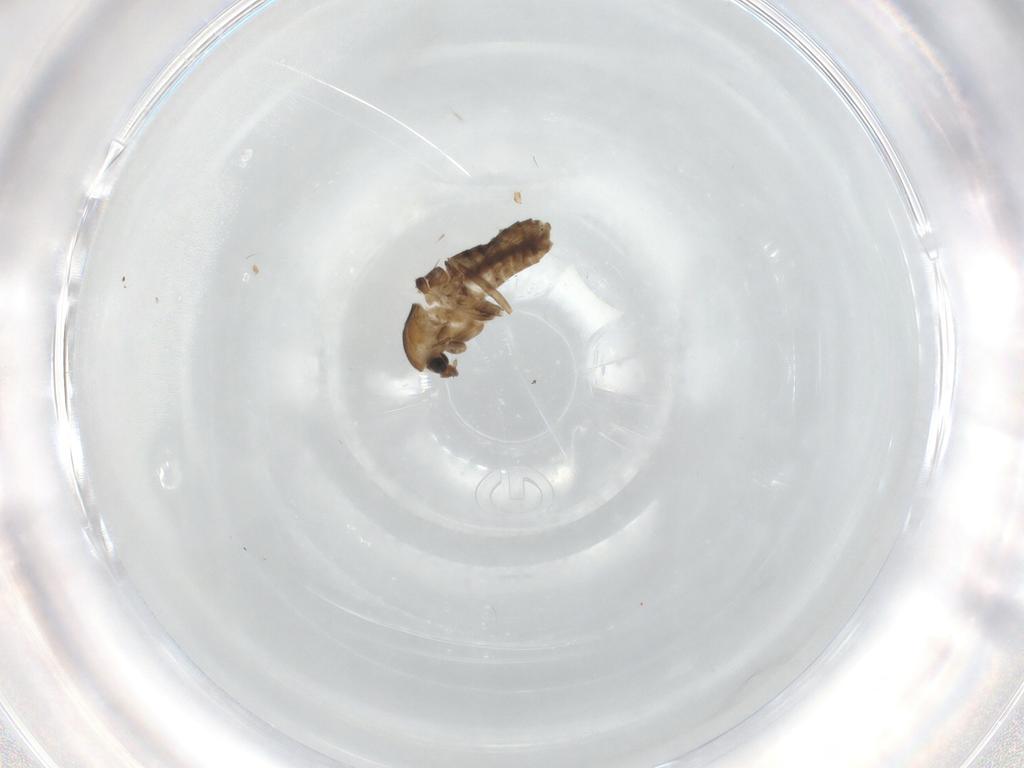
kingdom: Animalia
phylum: Arthropoda
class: Insecta
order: Diptera
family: Chironomidae
